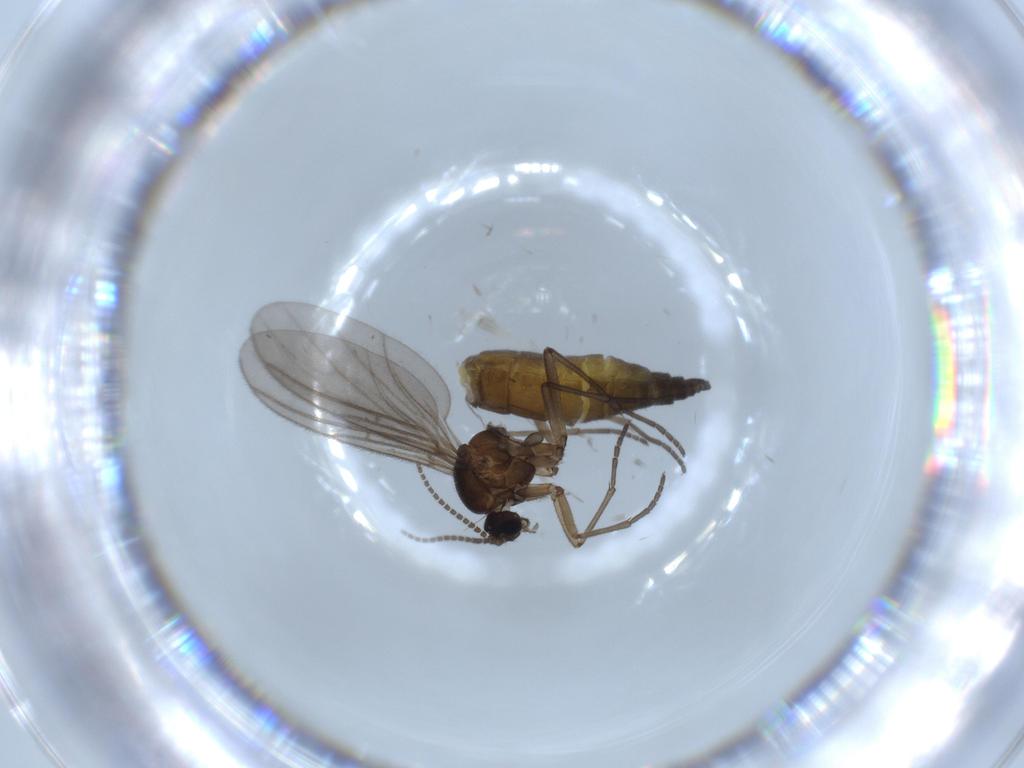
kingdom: Animalia
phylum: Arthropoda
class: Insecta
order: Diptera
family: Sciaridae
